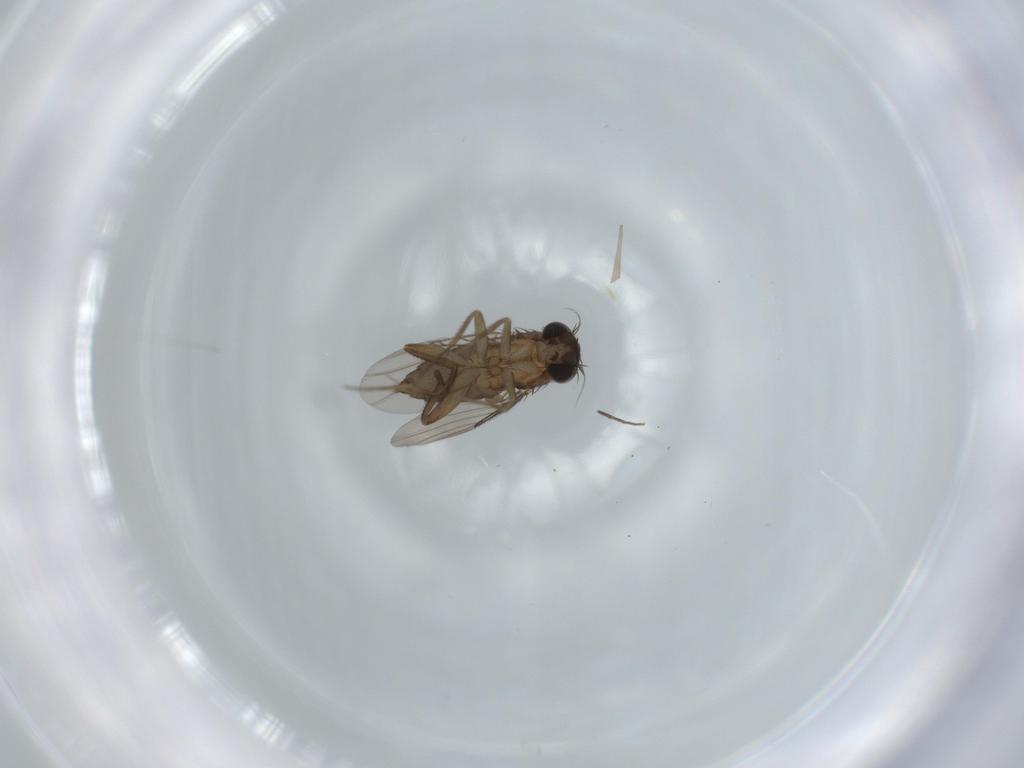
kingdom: Animalia
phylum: Arthropoda
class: Insecta
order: Diptera
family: Phoridae
